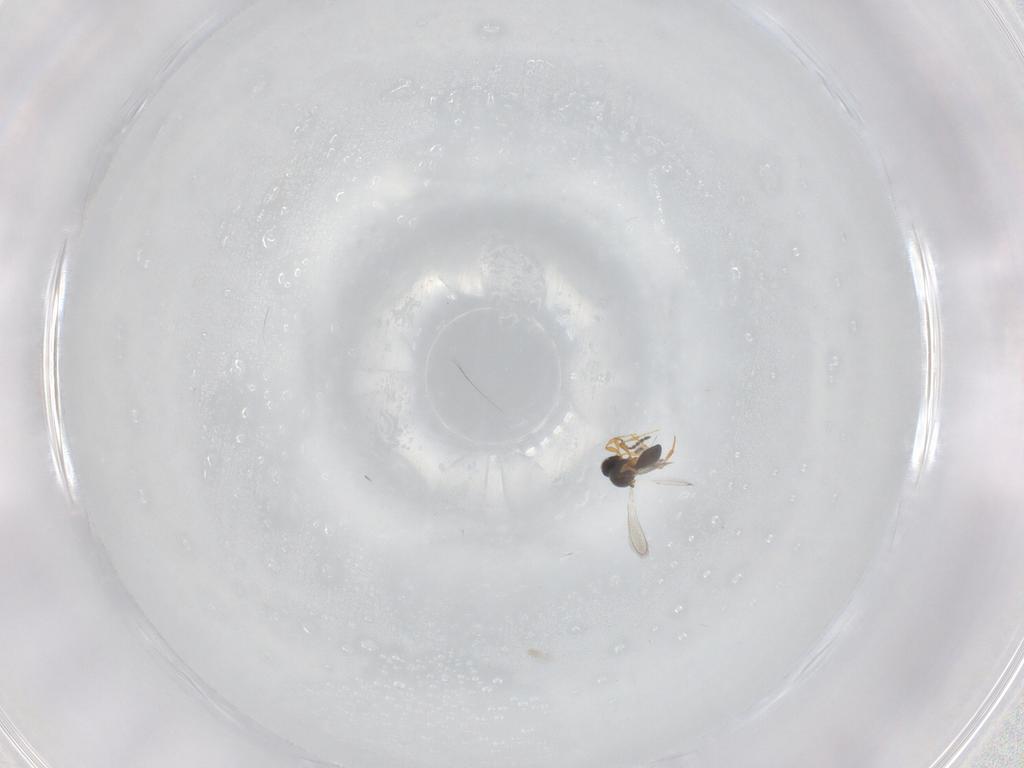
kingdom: Animalia
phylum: Arthropoda
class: Insecta
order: Hymenoptera
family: Platygastridae
